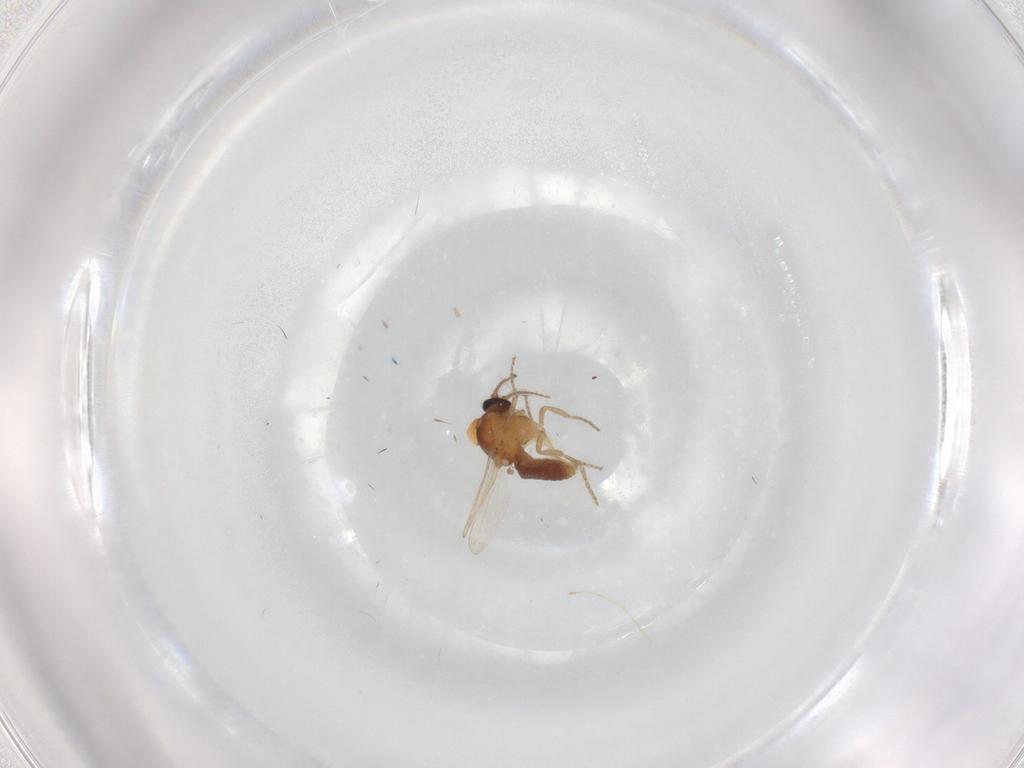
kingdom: Animalia
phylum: Arthropoda
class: Insecta
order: Diptera
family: Ceratopogonidae
